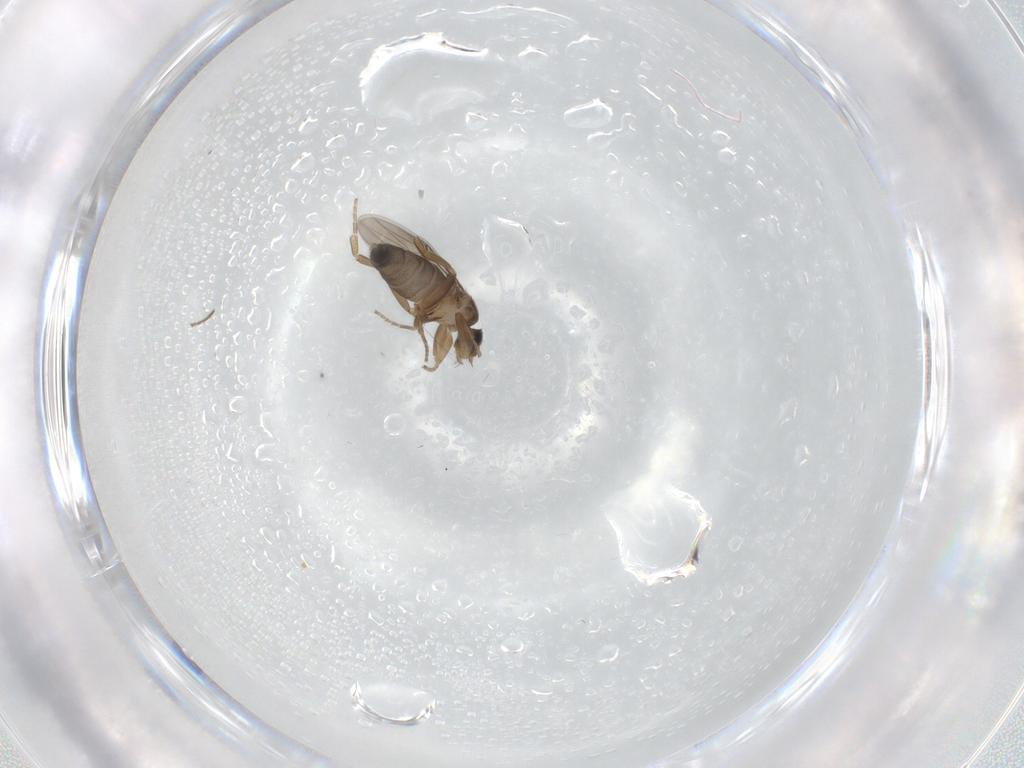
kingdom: Animalia
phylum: Arthropoda
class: Insecta
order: Diptera
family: Phoridae
